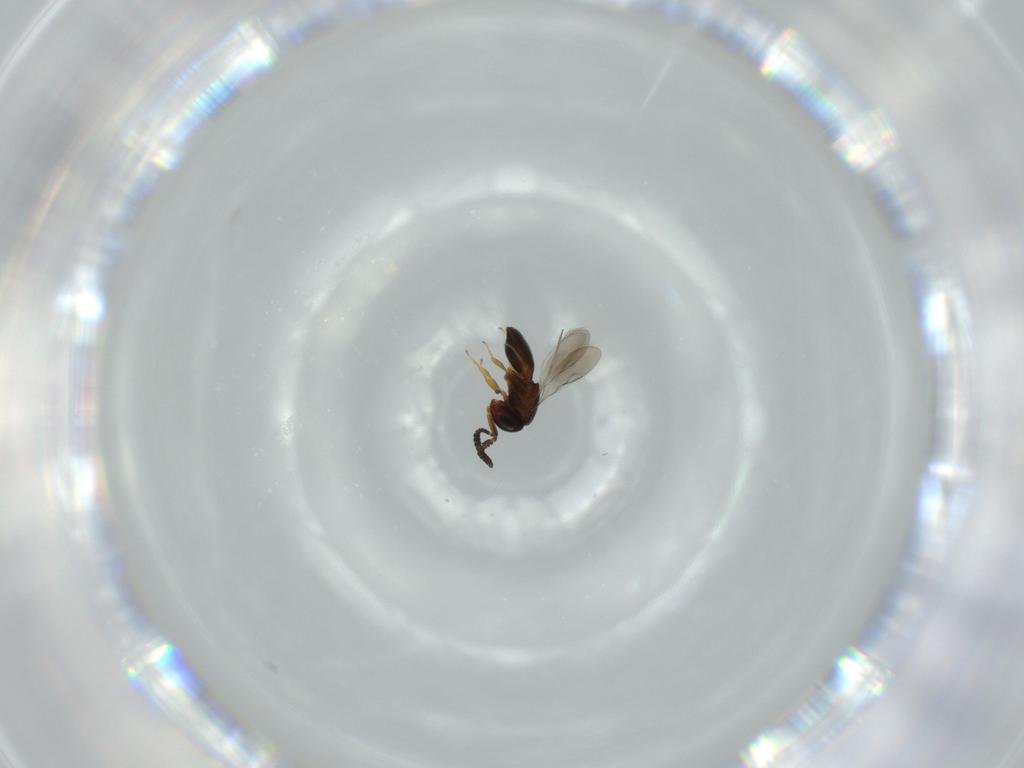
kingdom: Animalia
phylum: Arthropoda
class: Insecta
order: Hymenoptera
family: Scelionidae
